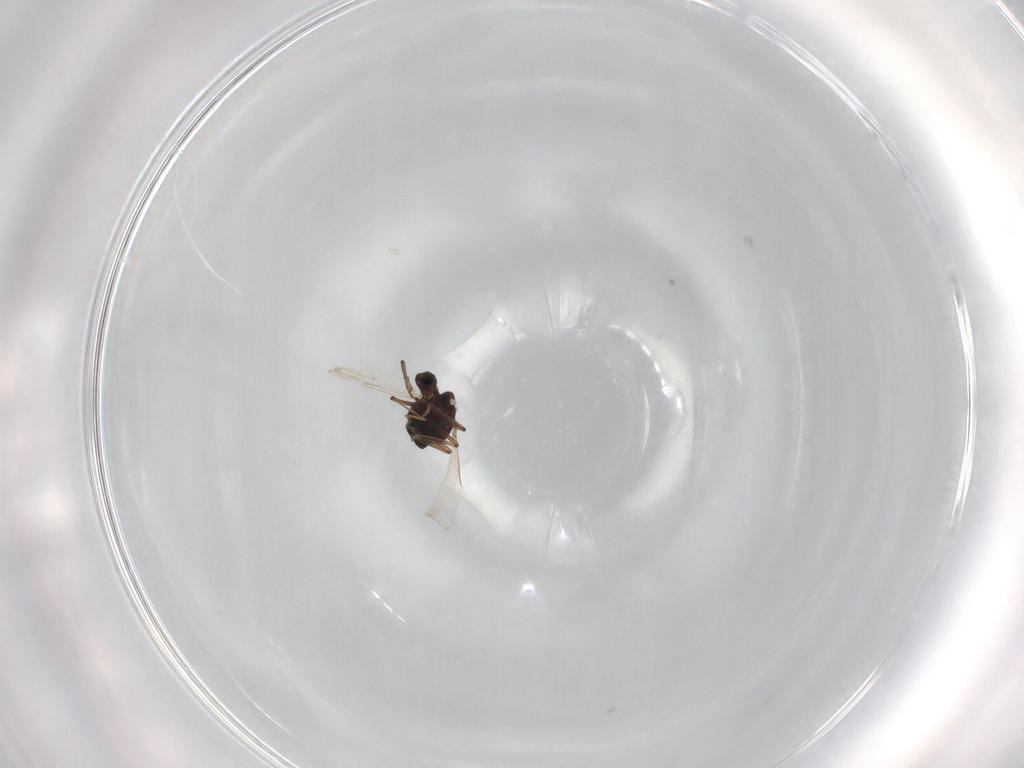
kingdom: Animalia
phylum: Arthropoda
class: Insecta
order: Diptera
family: Ceratopogonidae
